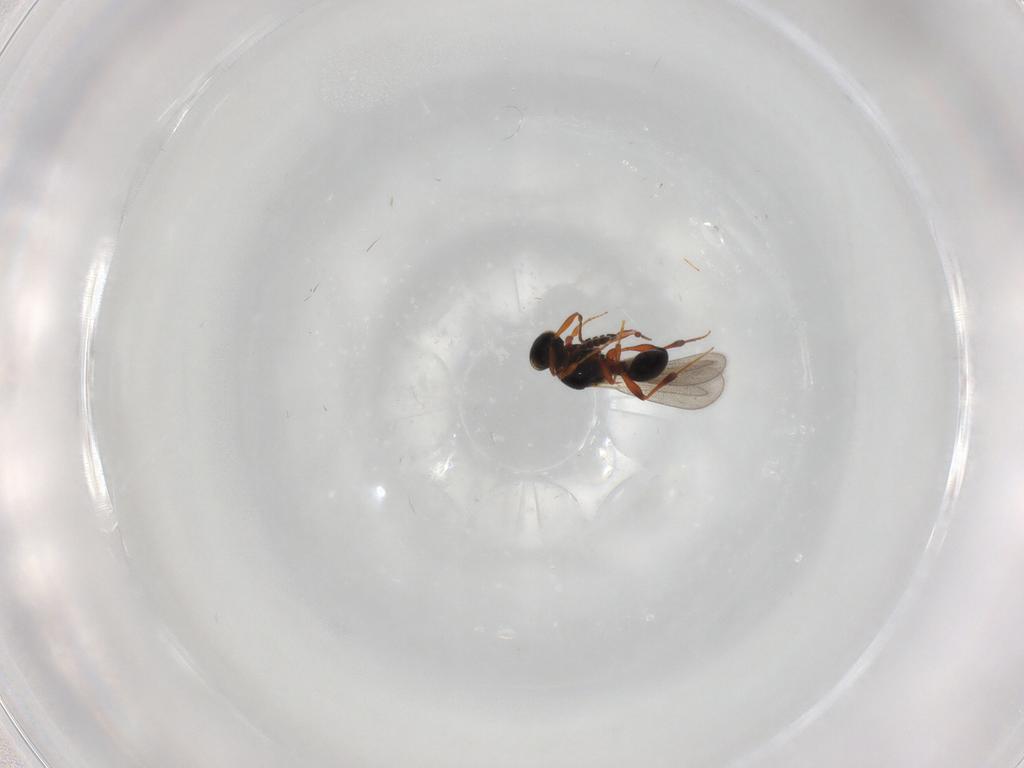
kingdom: Animalia
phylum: Arthropoda
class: Insecta
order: Hymenoptera
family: Platygastridae
